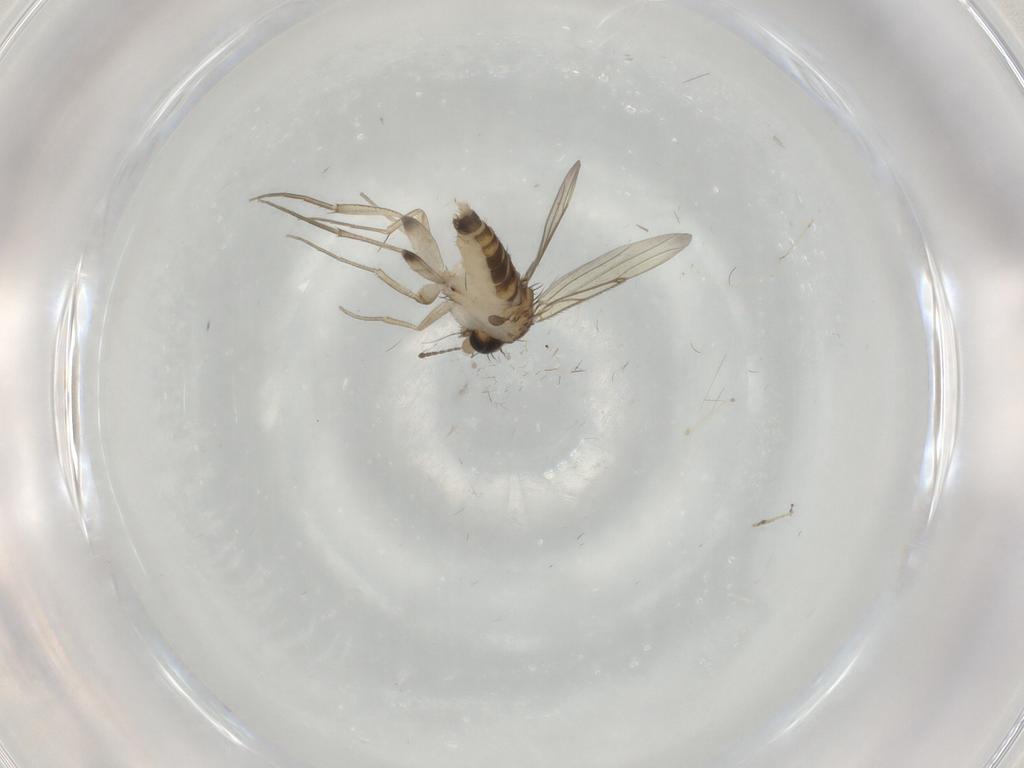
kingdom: Animalia
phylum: Arthropoda
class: Insecta
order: Diptera
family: Limoniidae
